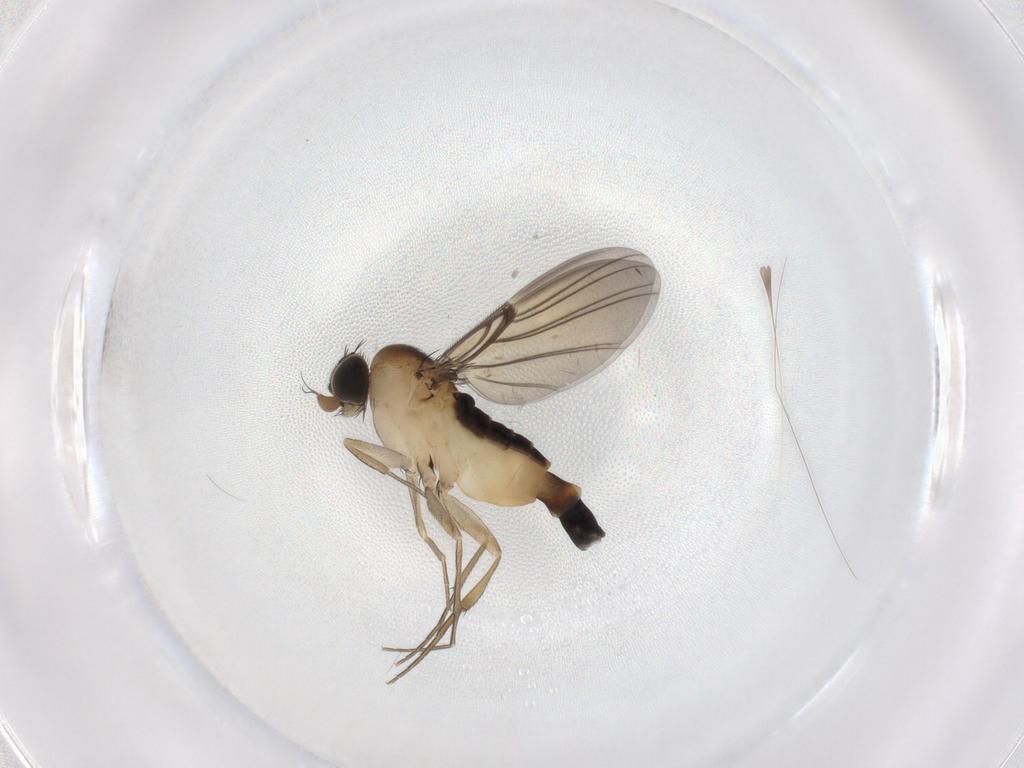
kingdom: Animalia
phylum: Arthropoda
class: Insecta
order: Diptera
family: Phoridae
